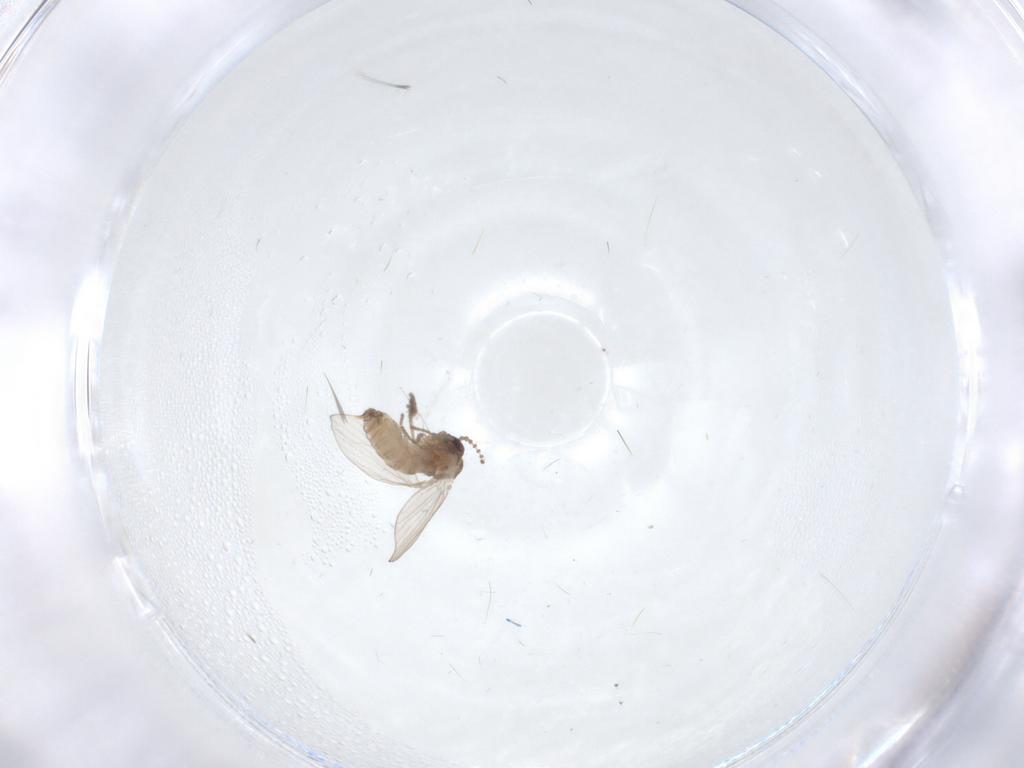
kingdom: Animalia
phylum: Arthropoda
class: Insecta
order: Diptera
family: Psychodidae
